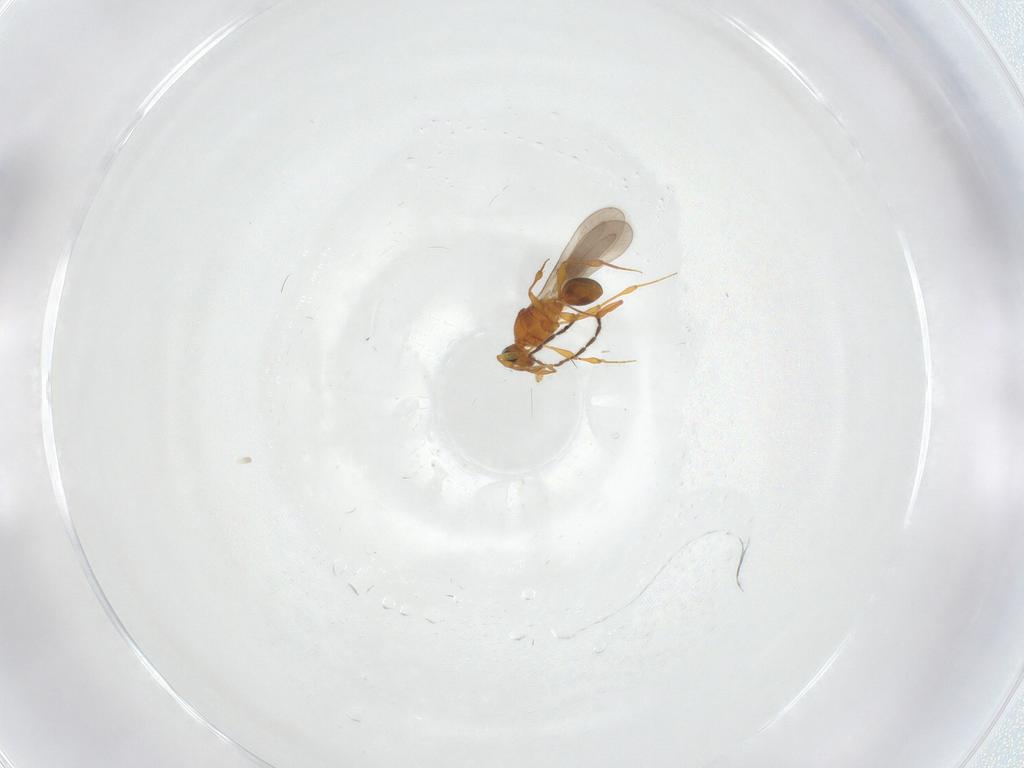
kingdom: Animalia
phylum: Arthropoda
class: Insecta
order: Hymenoptera
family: Platygastridae
